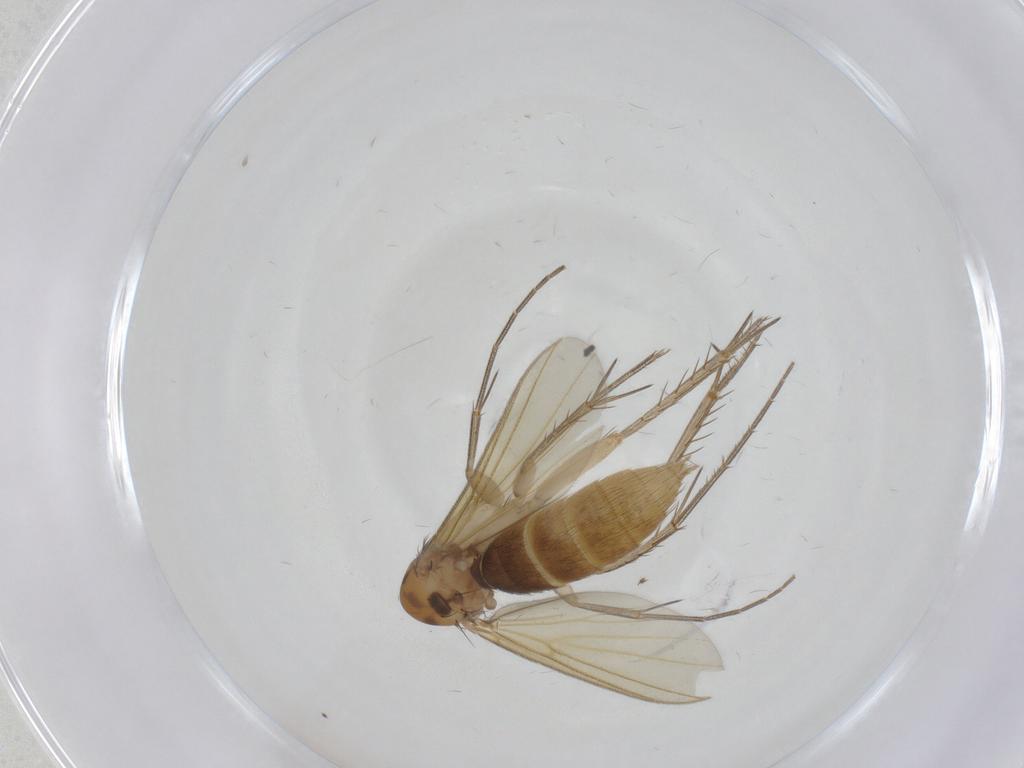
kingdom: Animalia
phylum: Arthropoda
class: Insecta
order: Diptera
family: Mycetophilidae
